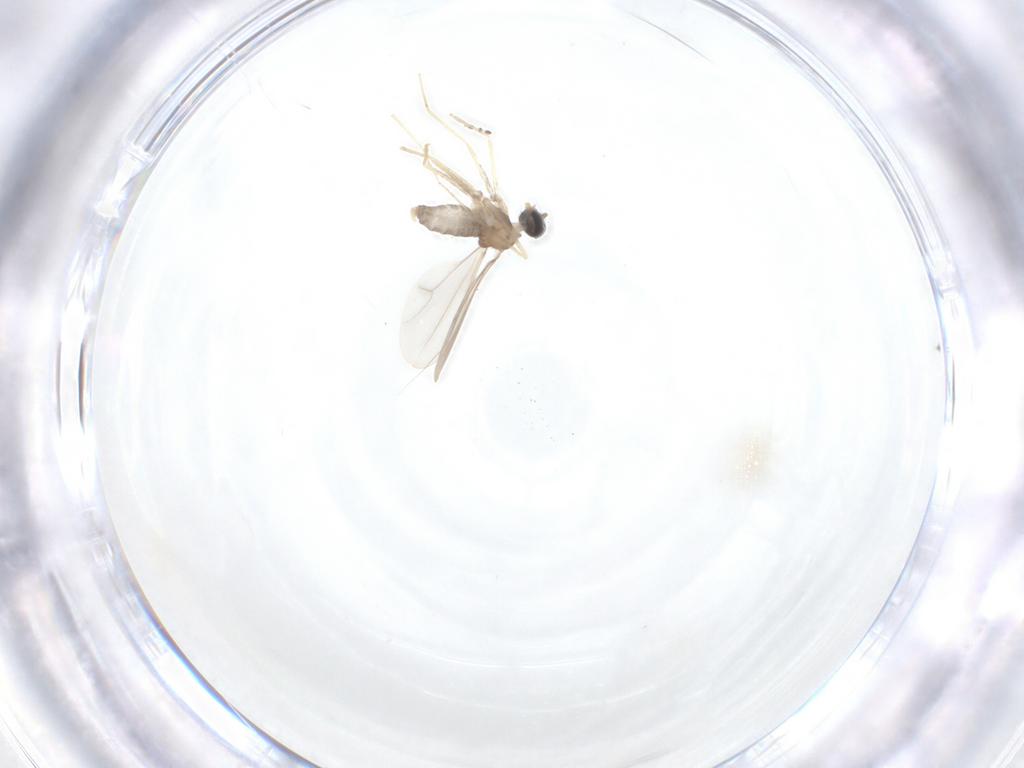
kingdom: Animalia
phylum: Arthropoda
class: Insecta
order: Diptera
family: Cecidomyiidae
